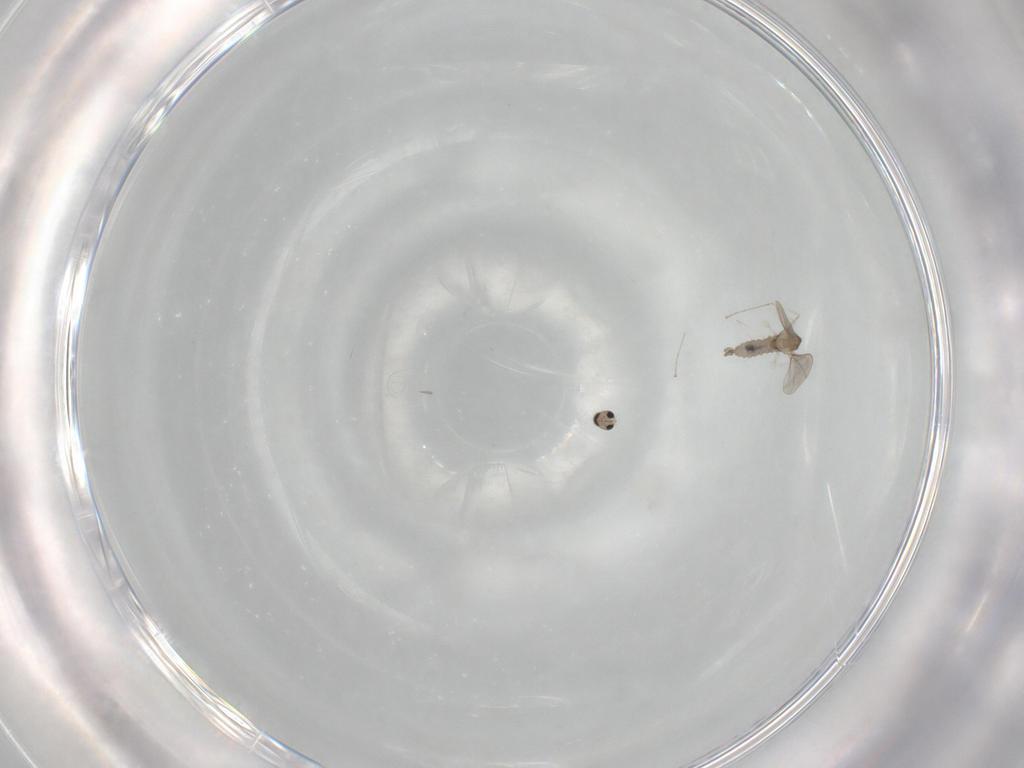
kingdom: Animalia
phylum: Arthropoda
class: Insecta
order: Diptera
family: Cecidomyiidae
